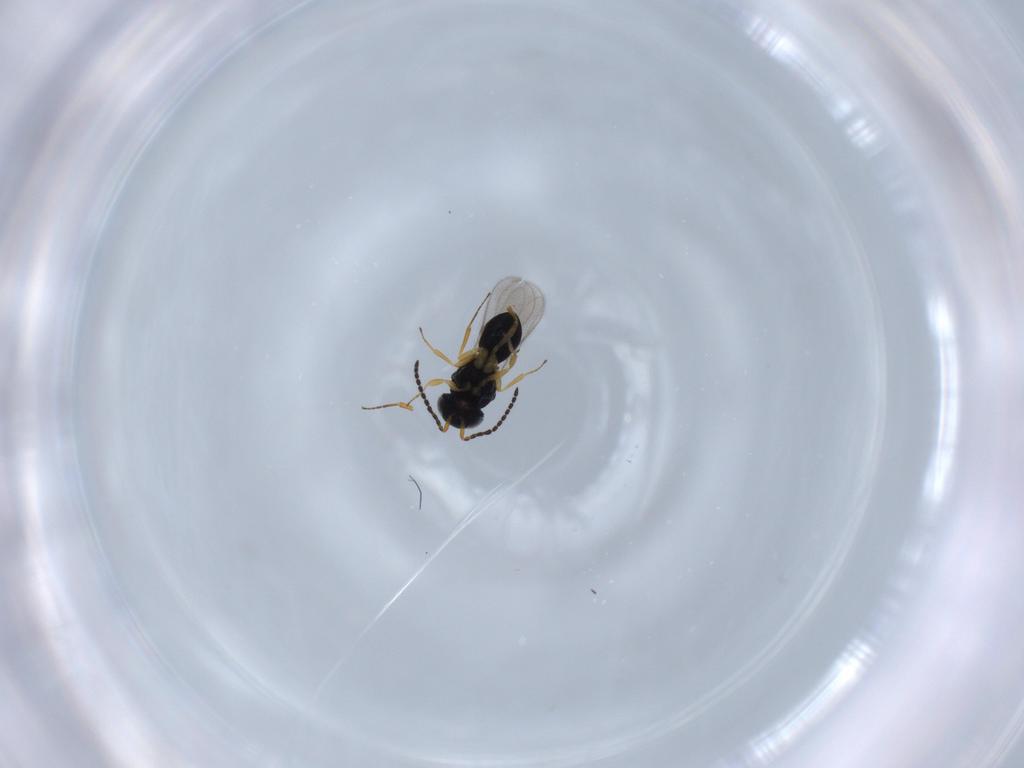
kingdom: Animalia
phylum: Arthropoda
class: Insecta
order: Hymenoptera
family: Scelionidae
